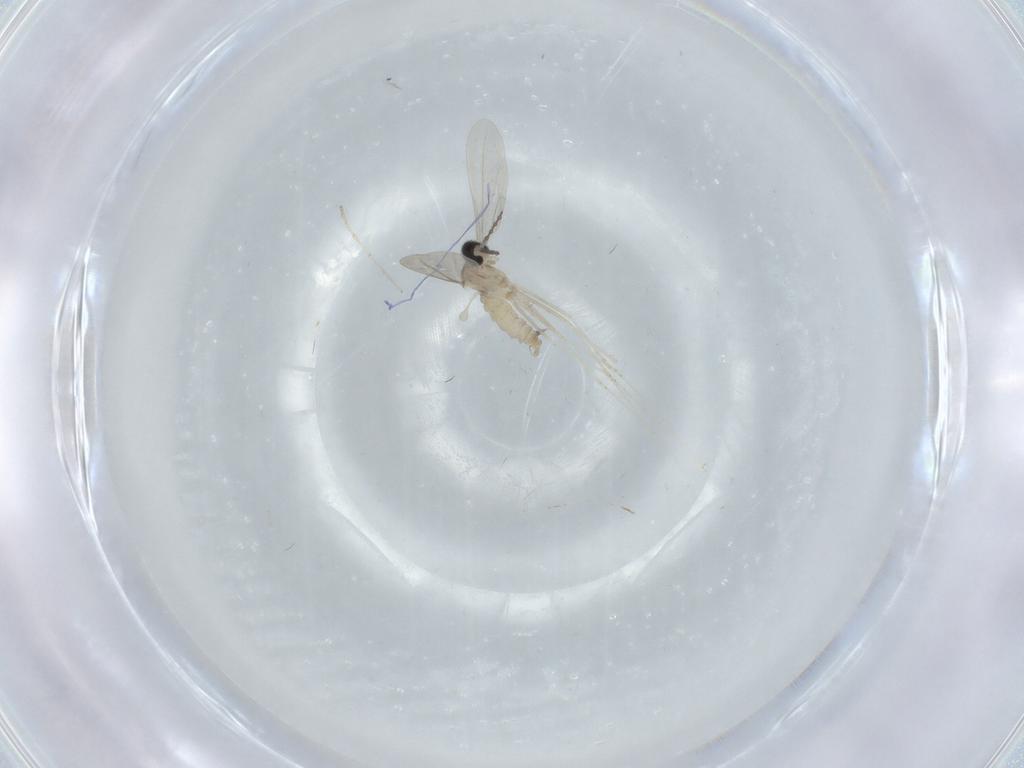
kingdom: Animalia
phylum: Arthropoda
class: Insecta
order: Diptera
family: Cecidomyiidae
